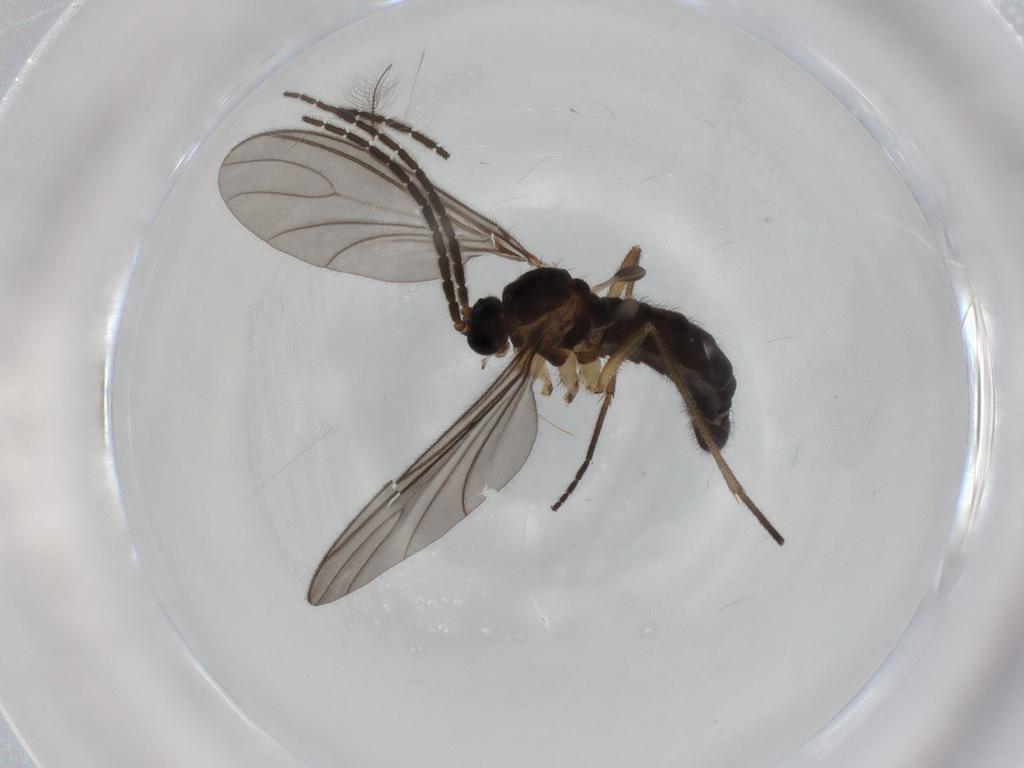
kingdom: Animalia
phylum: Arthropoda
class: Insecta
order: Diptera
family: Sciaridae
